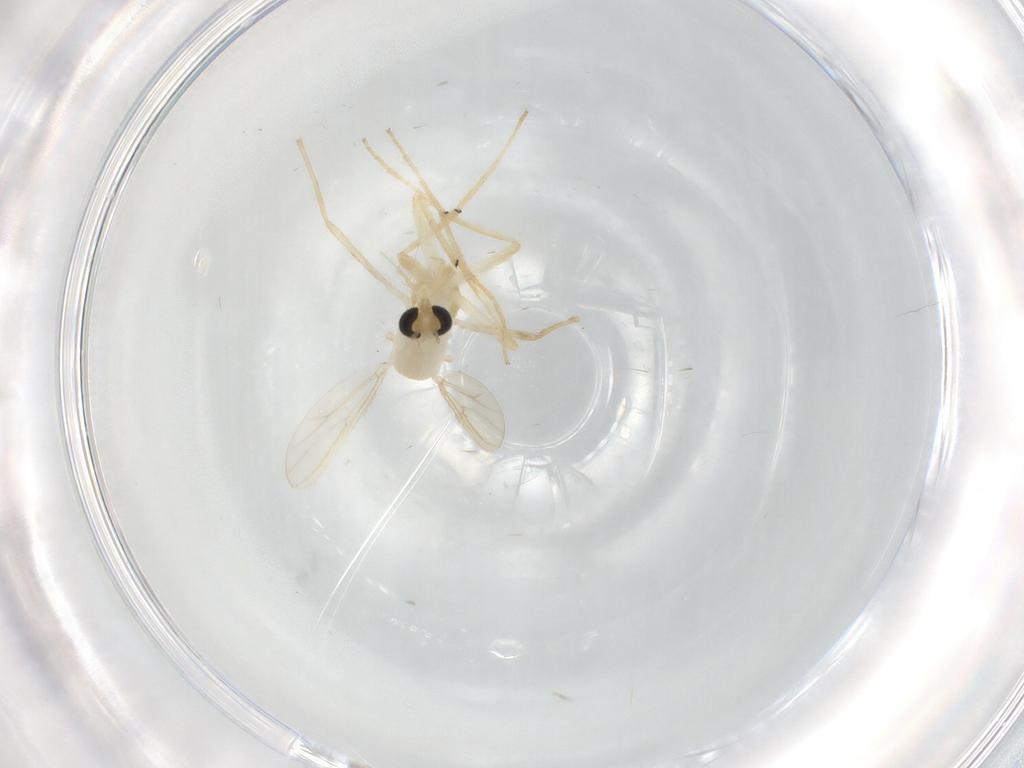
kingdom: Animalia
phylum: Arthropoda
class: Insecta
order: Diptera
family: Chironomidae
